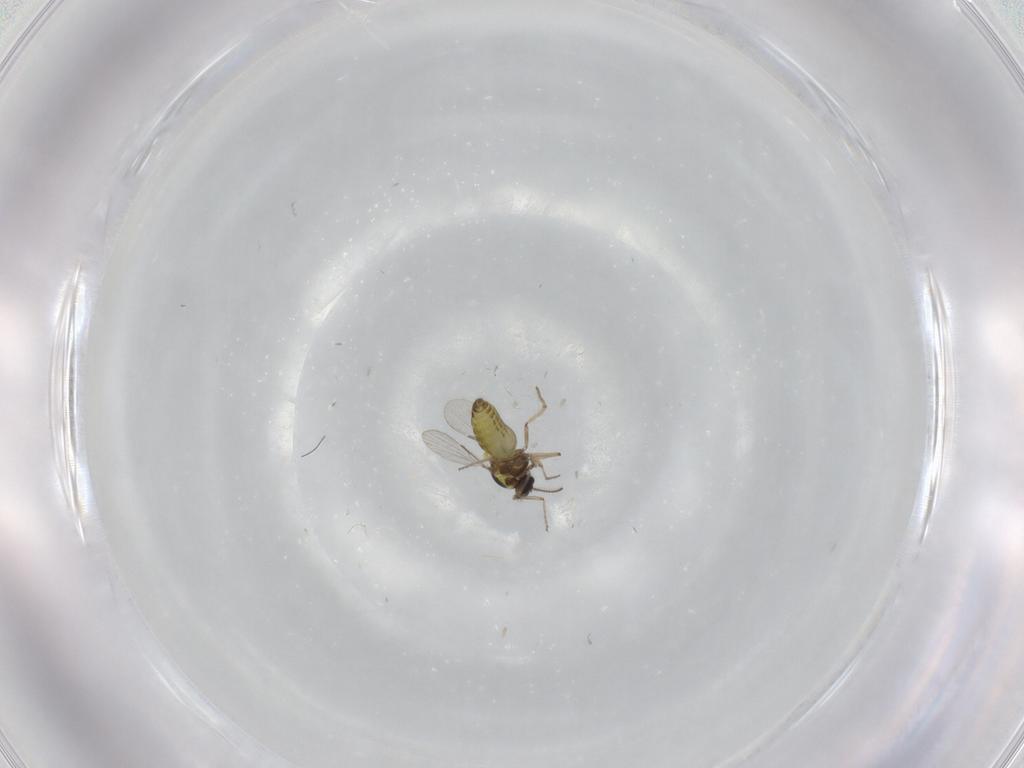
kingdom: Animalia
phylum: Arthropoda
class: Insecta
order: Diptera
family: Ceratopogonidae
